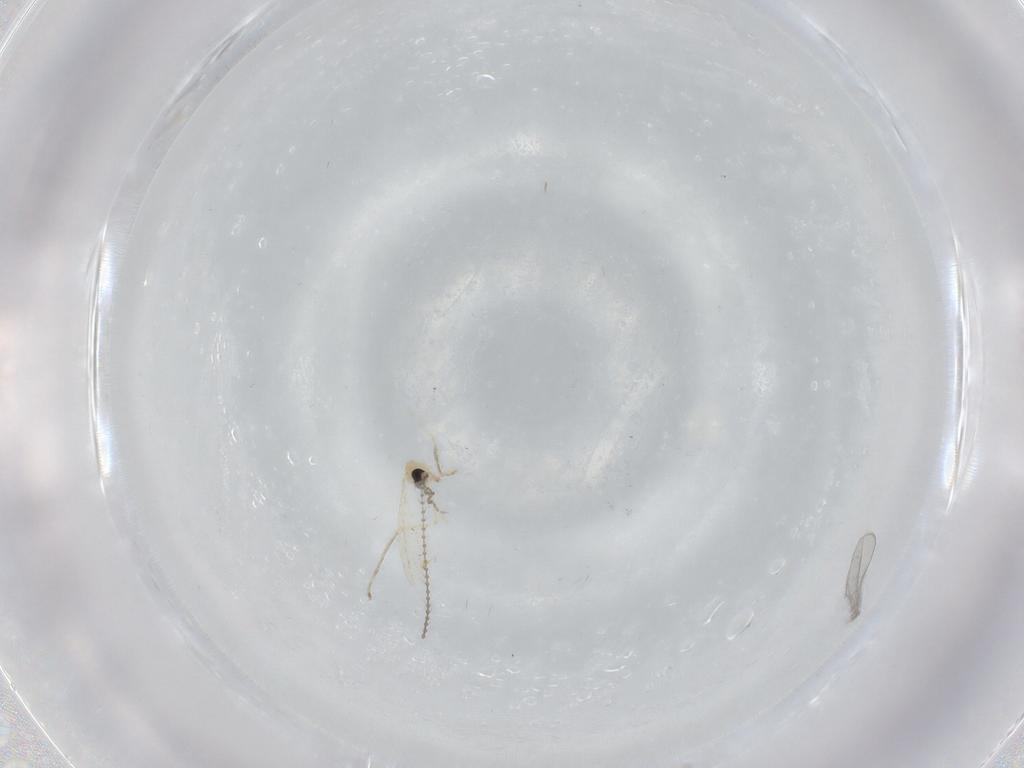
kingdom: Animalia
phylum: Arthropoda
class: Insecta
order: Diptera
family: Cecidomyiidae
